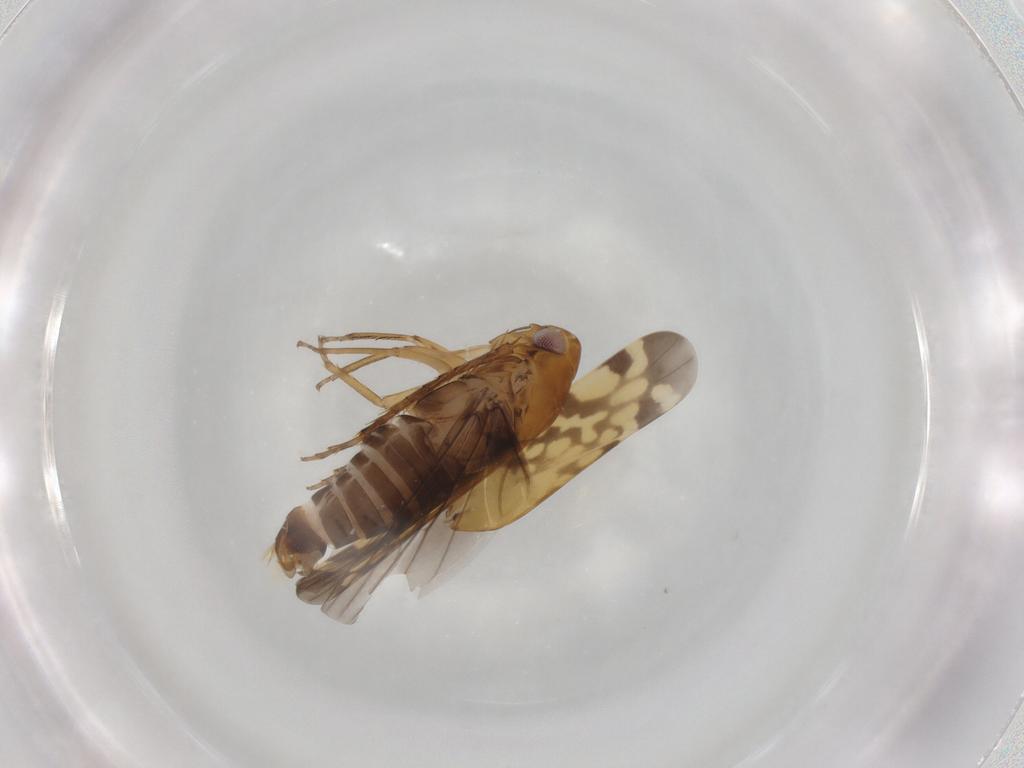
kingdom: Animalia
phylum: Arthropoda
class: Insecta
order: Hemiptera
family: Cicadellidae
